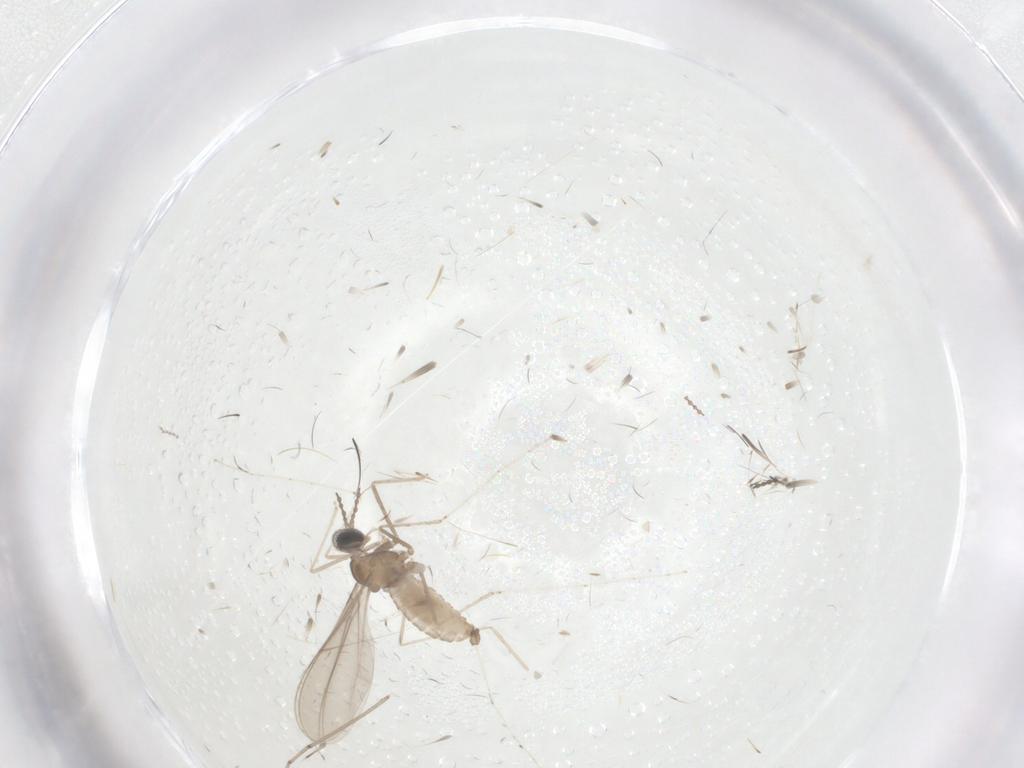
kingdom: Animalia
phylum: Arthropoda
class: Insecta
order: Diptera
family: Cecidomyiidae
